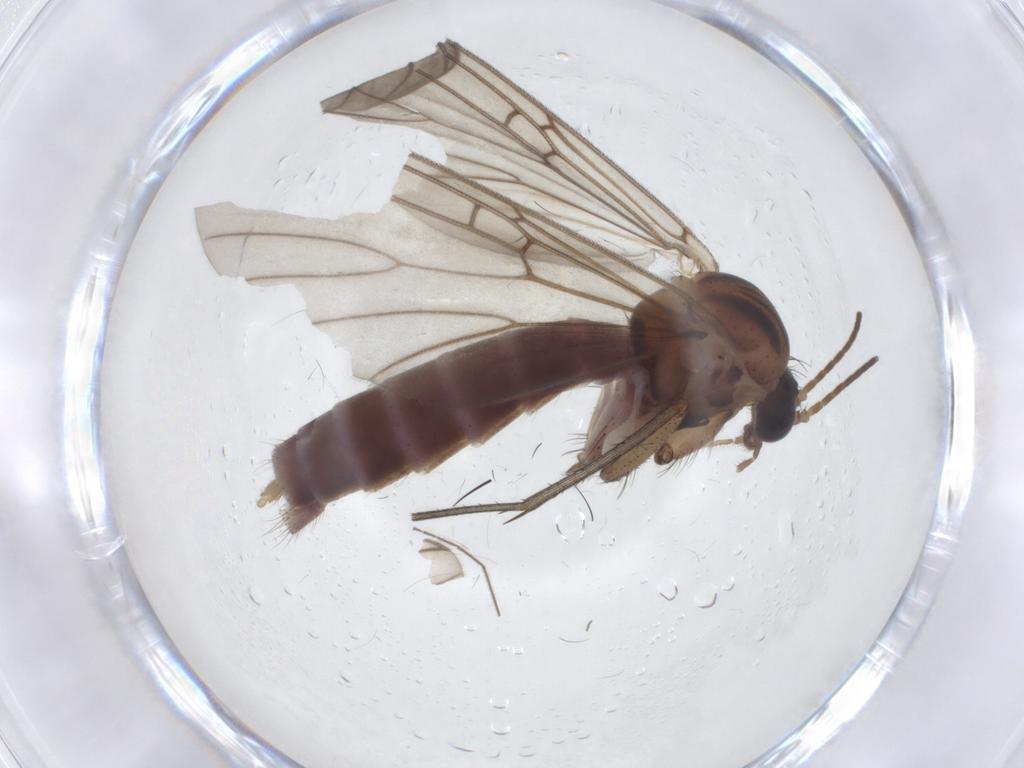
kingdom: Animalia
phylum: Arthropoda
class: Insecta
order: Diptera
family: Mycetophilidae
